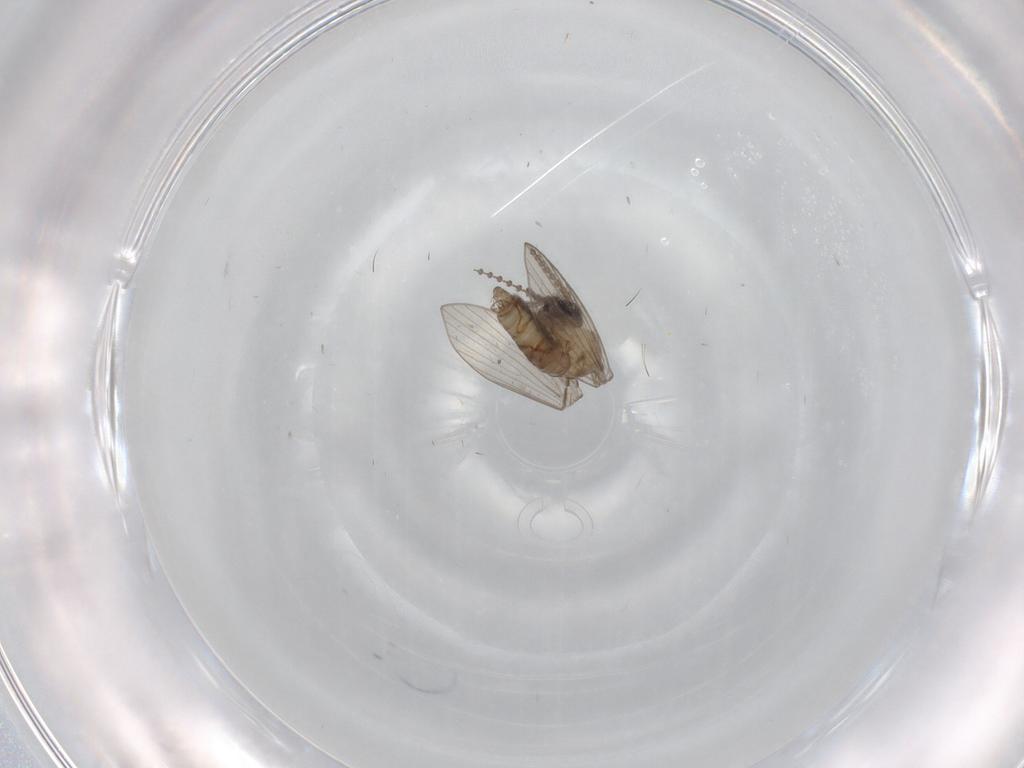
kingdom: Animalia
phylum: Arthropoda
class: Insecta
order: Diptera
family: Psychodidae
